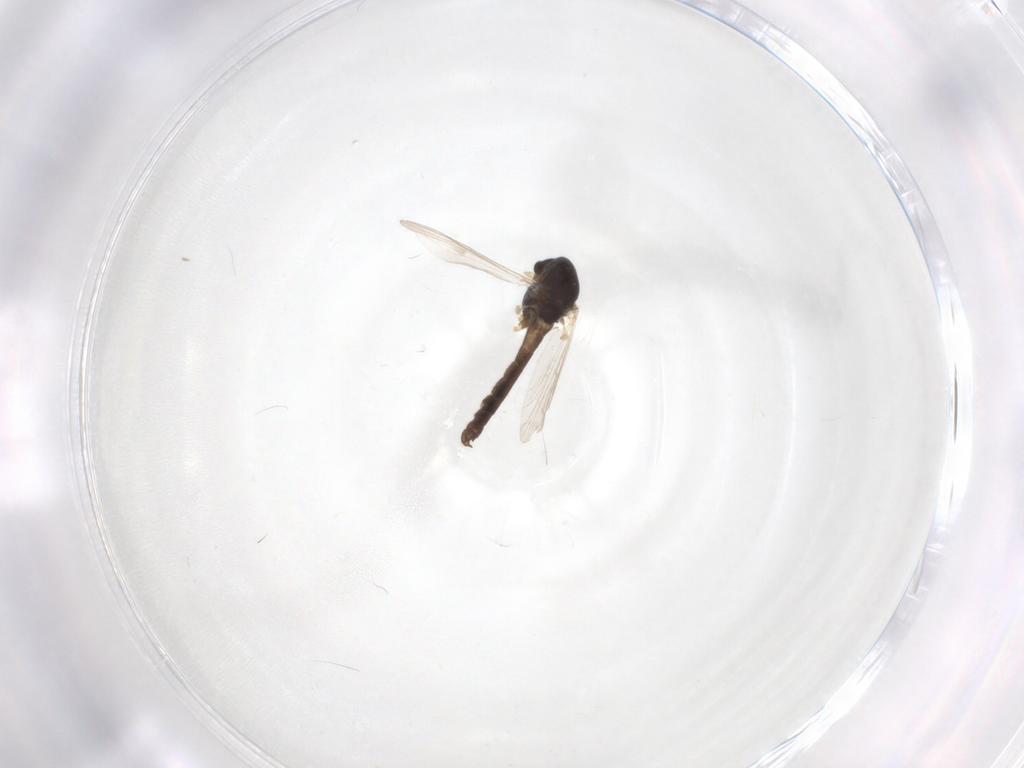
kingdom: Animalia
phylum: Arthropoda
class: Insecta
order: Diptera
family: Chironomidae
